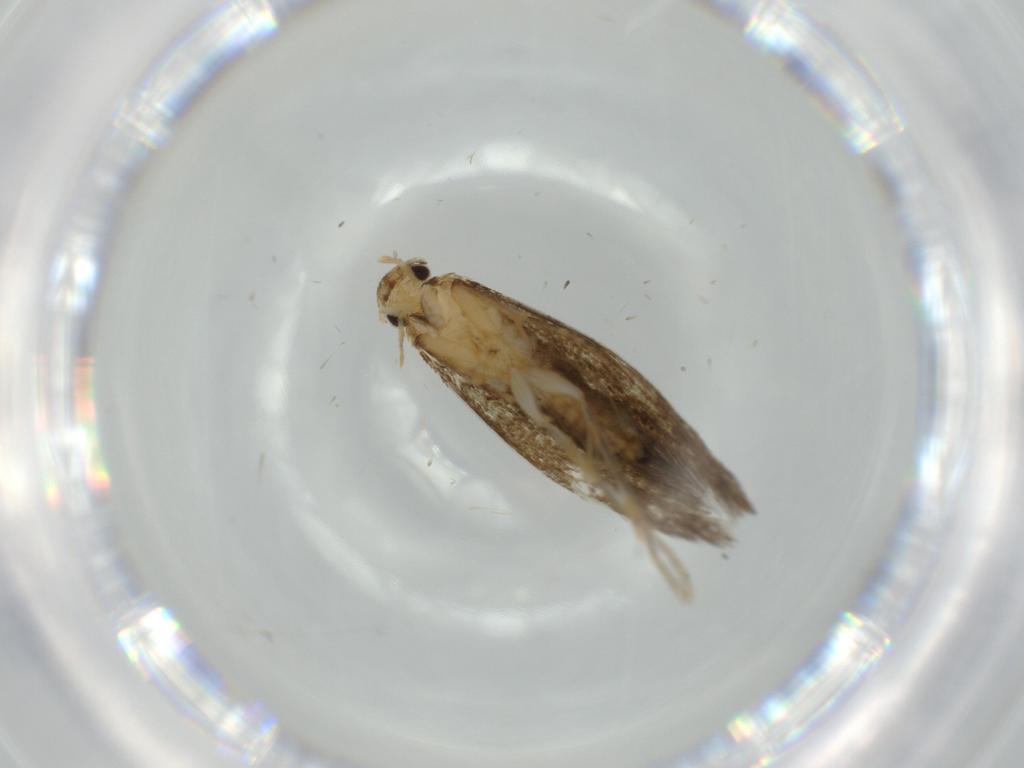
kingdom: Animalia
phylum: Arthropoda
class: Insecta
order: Lepidoptera
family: Tineidae
